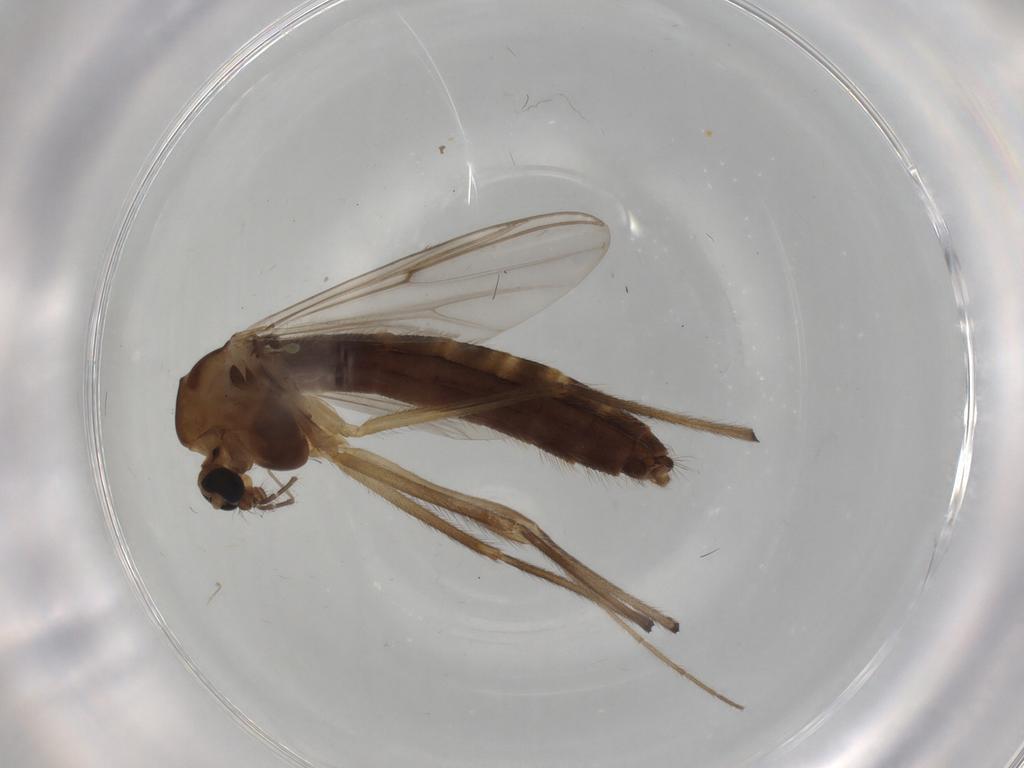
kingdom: Animalia
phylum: Arthropoda
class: Insecta
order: Diptera
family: Chironomidae
